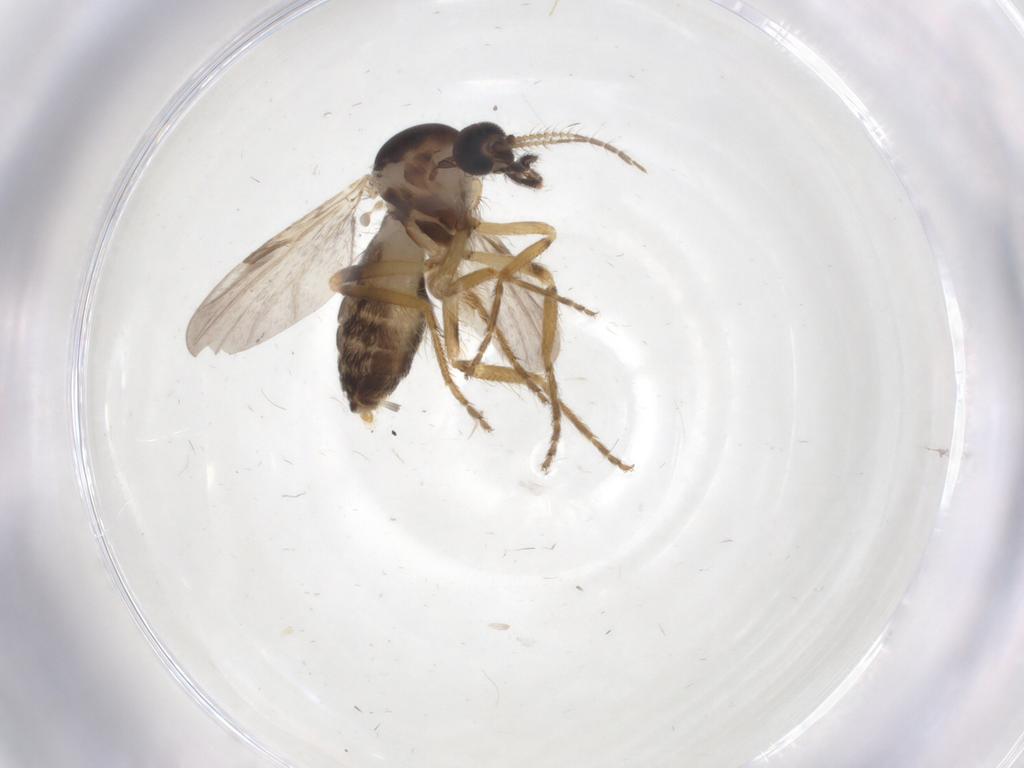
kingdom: Animalia
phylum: Arthropoda
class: Insecta
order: Diptera
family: Ceratopogonidae
